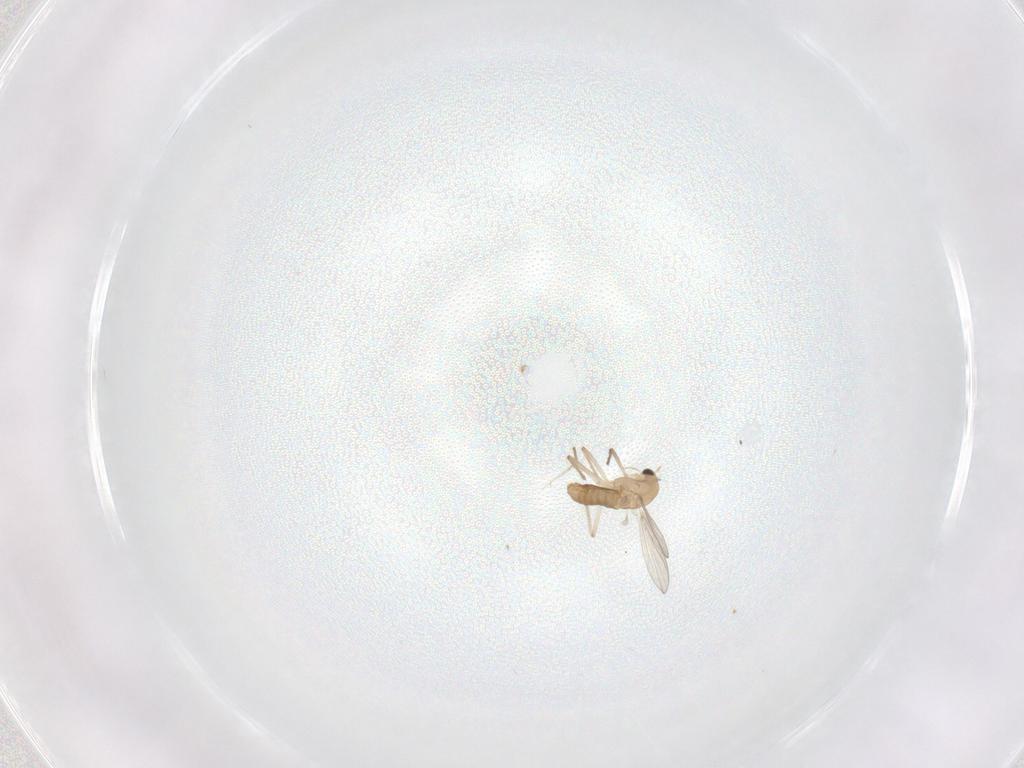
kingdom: Animalia
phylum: Arthropoda
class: Insecta
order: Diptera
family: Chironomidae
